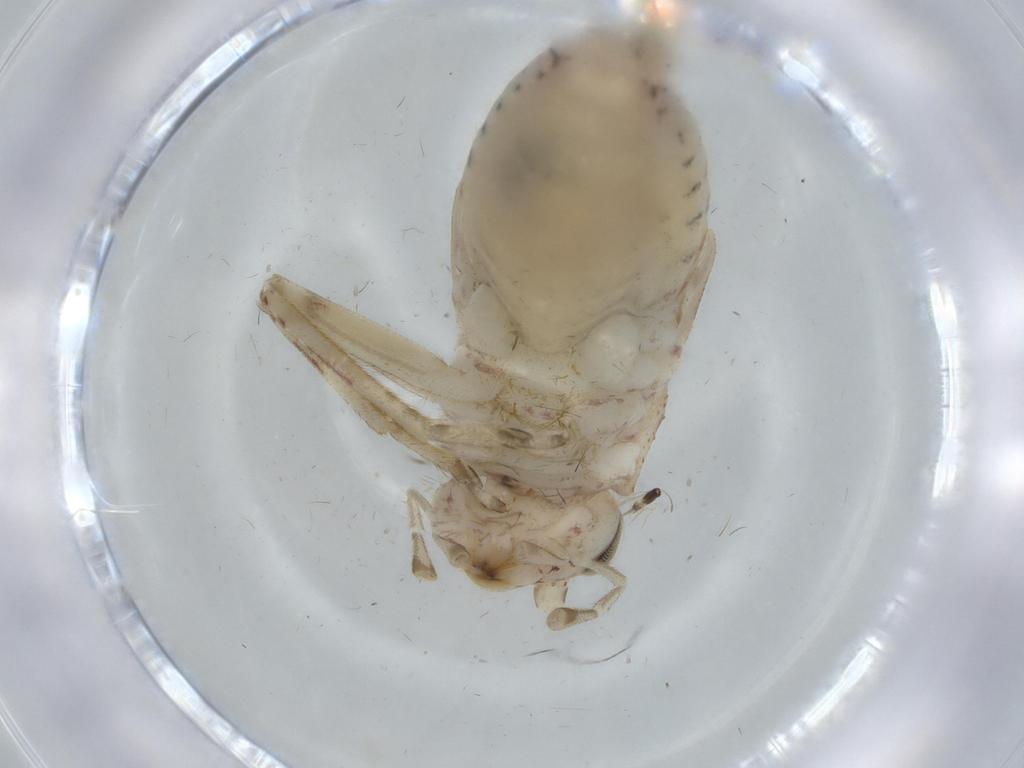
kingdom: Animalia
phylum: Arthropoda
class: Insecta
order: Orthoptera
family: Trigonidiidae
